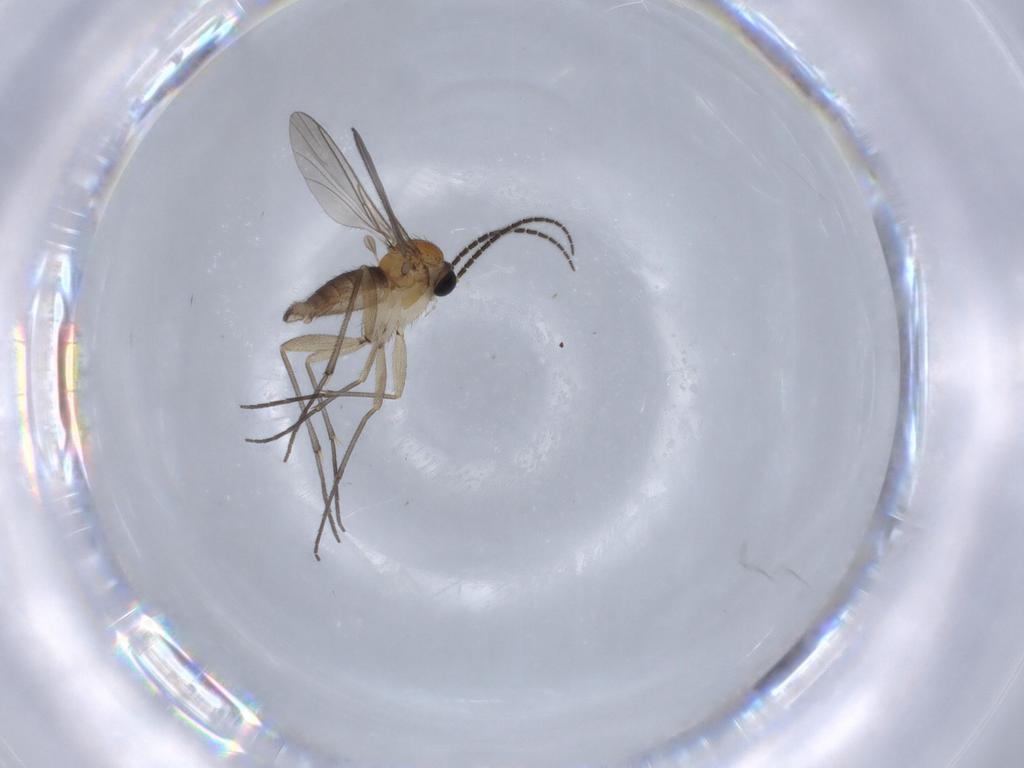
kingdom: Animalia
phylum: Arthropoda
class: Insecta
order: Diptera
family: Sciaridae
